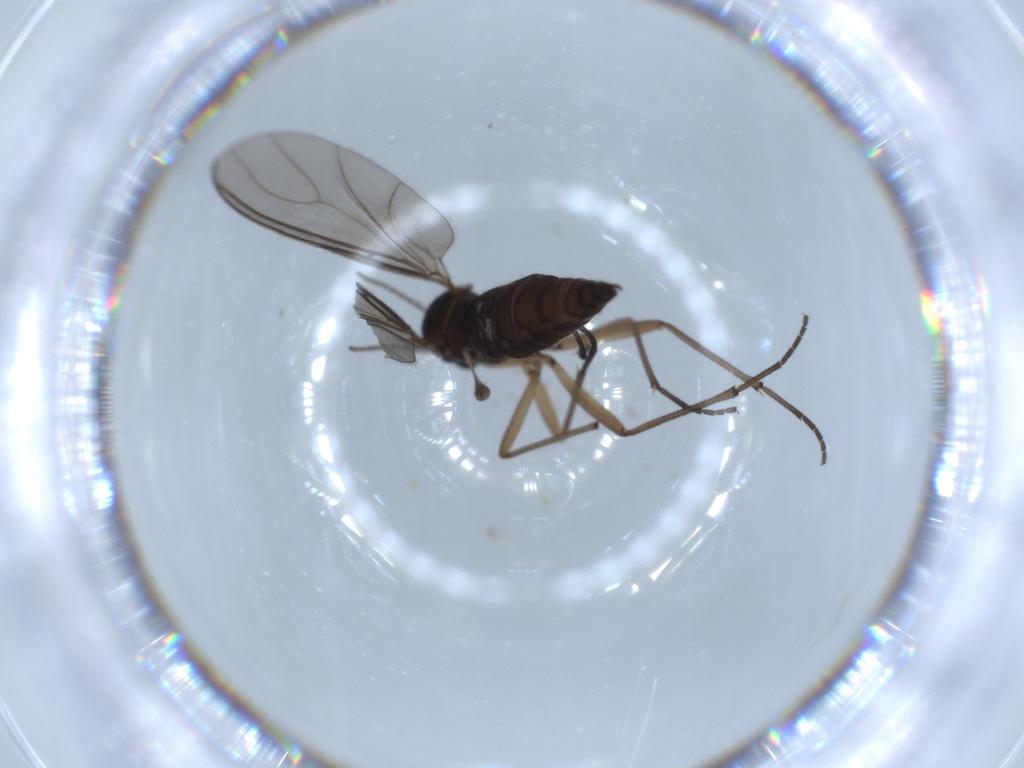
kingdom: Animalia
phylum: Arthropoda
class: Insecta
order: Diptera
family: Sciaridae
